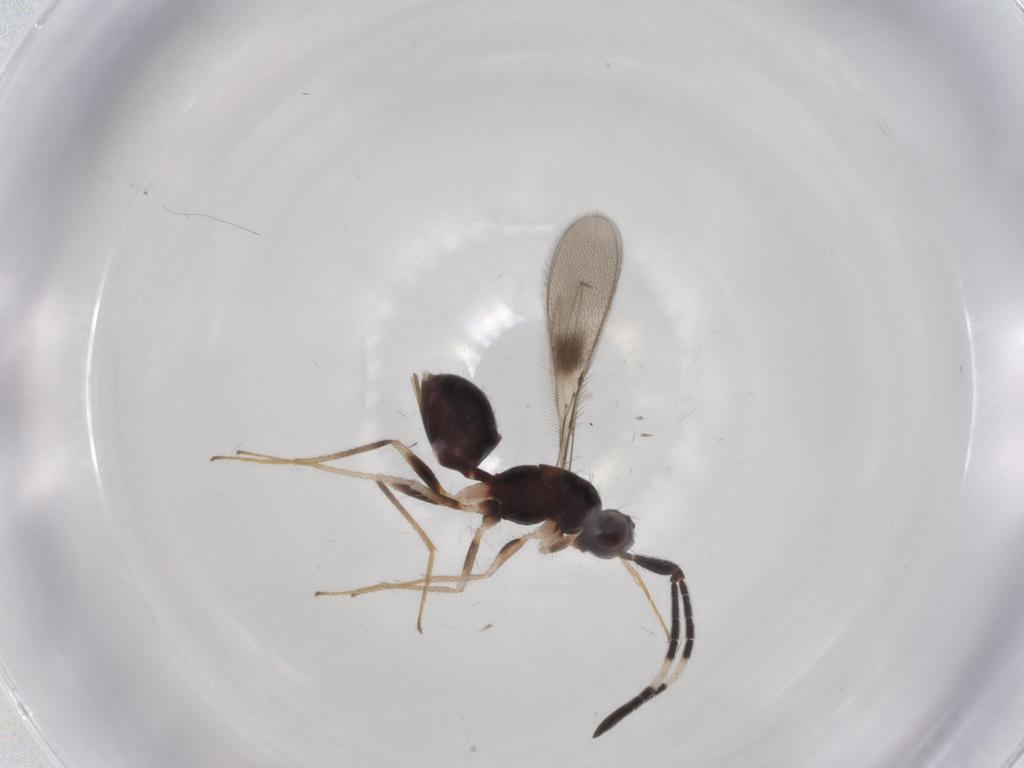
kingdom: Animalia
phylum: Arthropoda
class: Insecta
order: Hymenoptera
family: Mymaridae
